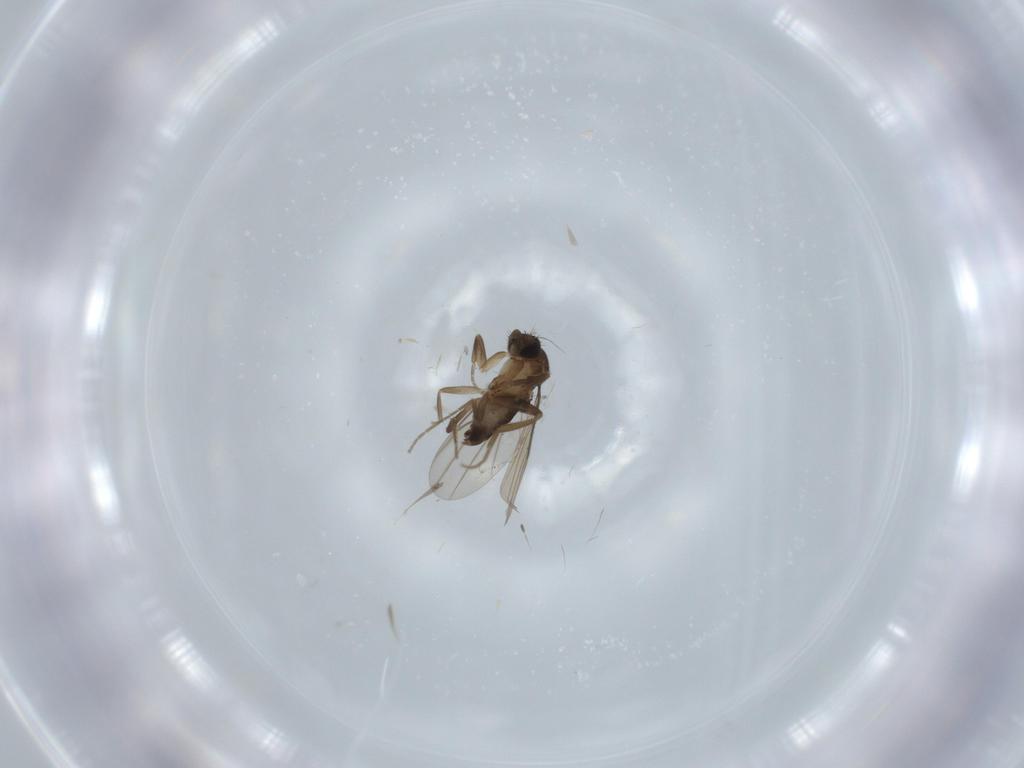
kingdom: Animalia
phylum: Arthropoda
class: Insecta
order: Diptera
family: Phoridae
